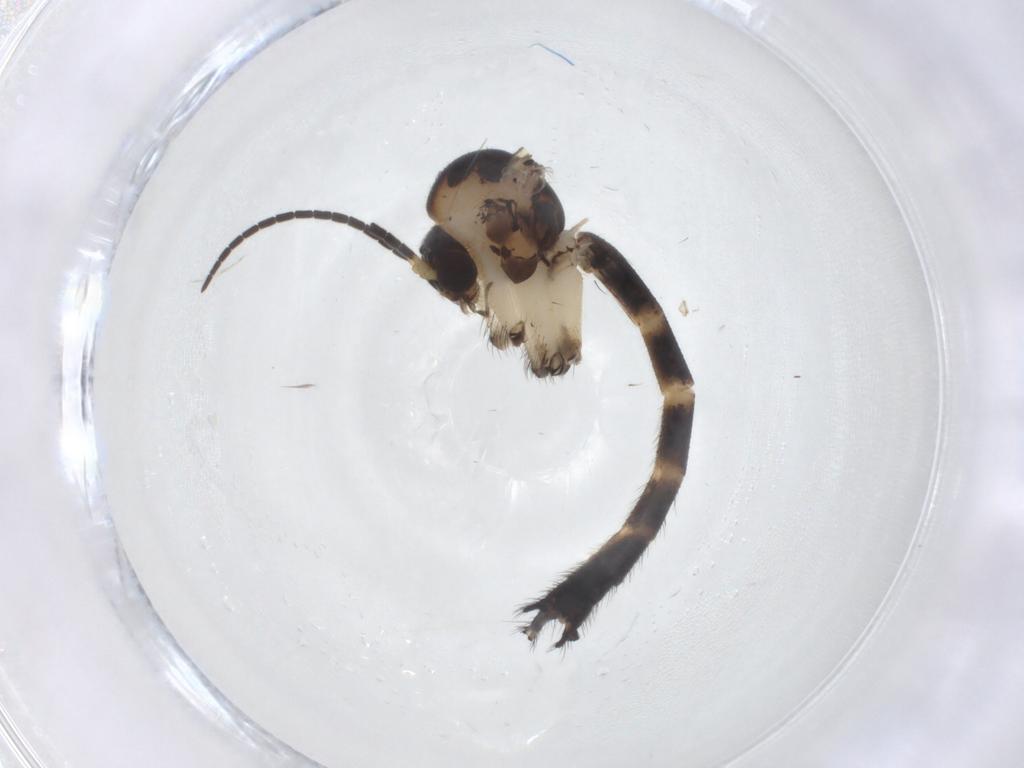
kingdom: Animalia
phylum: Arthropoda
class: Insecta
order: Diptera
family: Mycetophilidae
